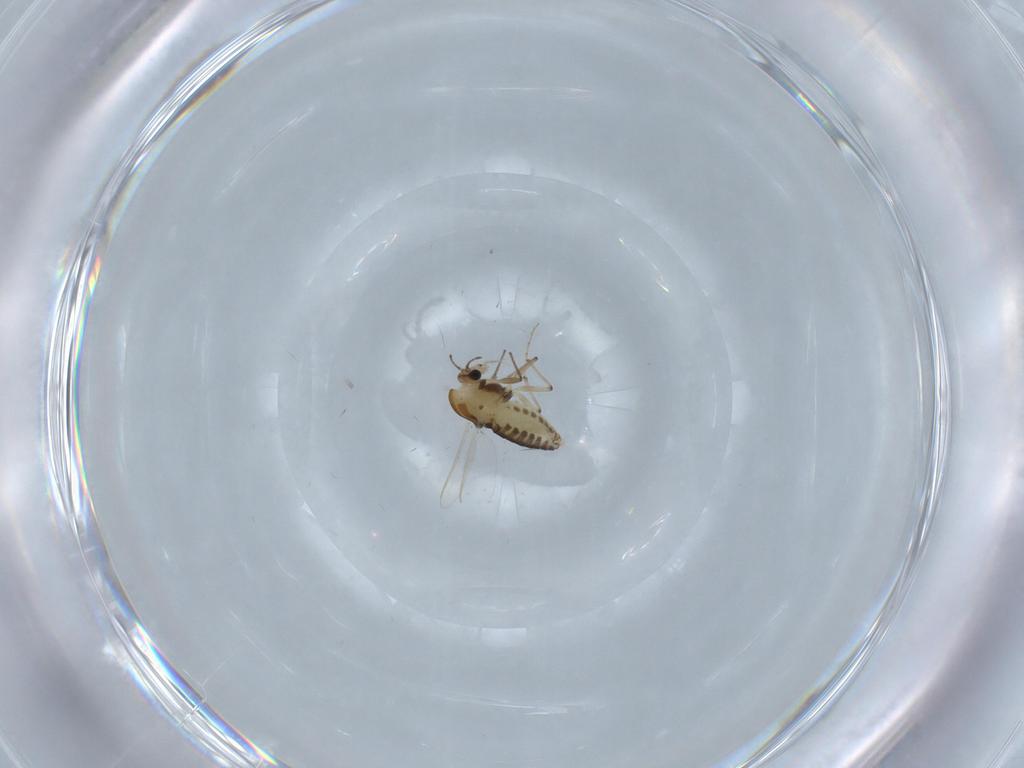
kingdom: Animalia
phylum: Arthropoda
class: Insecta
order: Diptera
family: Chironomidae
